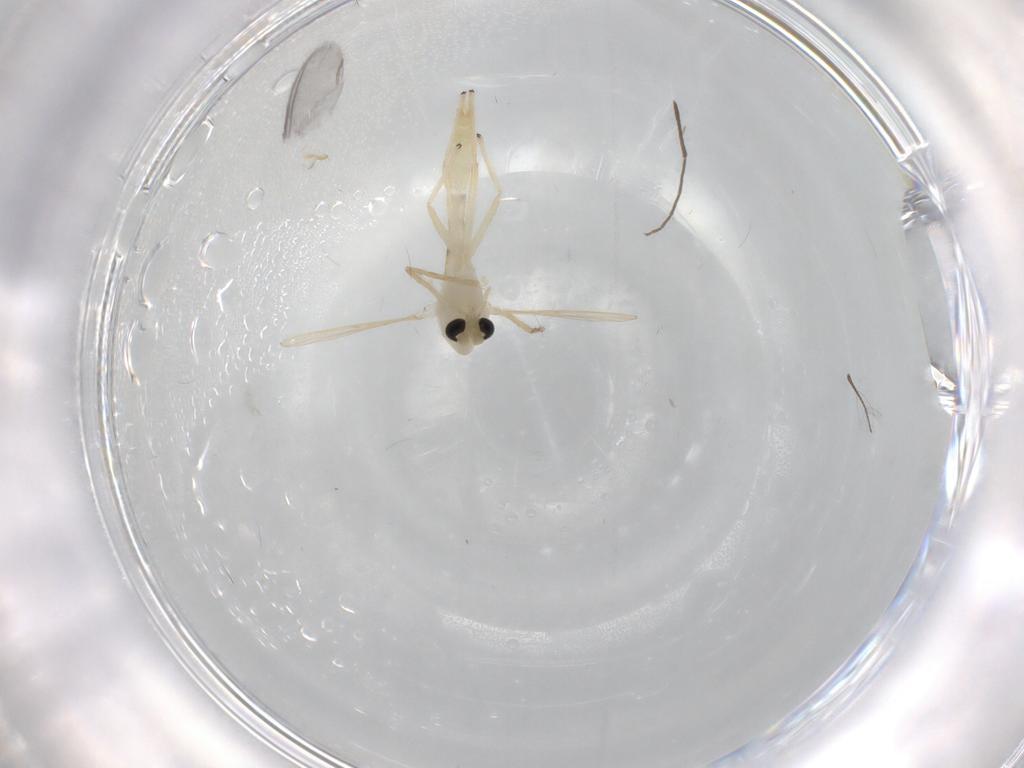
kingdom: Animalia
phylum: Arthropoda
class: Insecta
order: Diptera
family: Chironomidae
